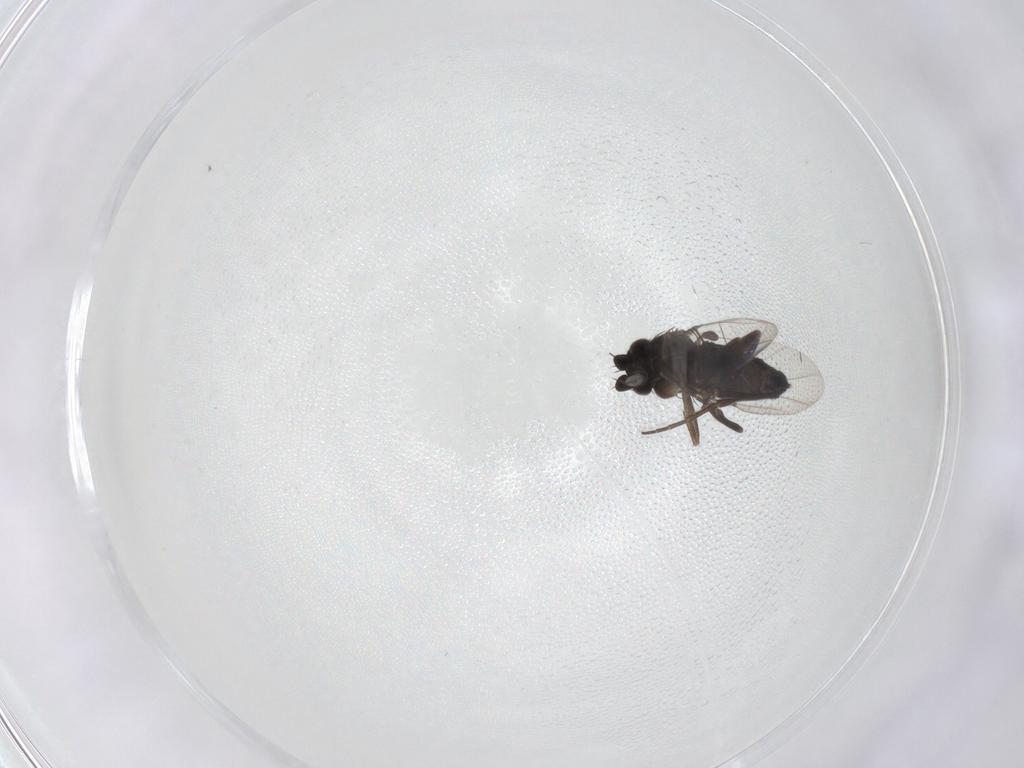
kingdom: Animalia
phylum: Arthropoda
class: Insecta
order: Diptera
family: Phoridae
